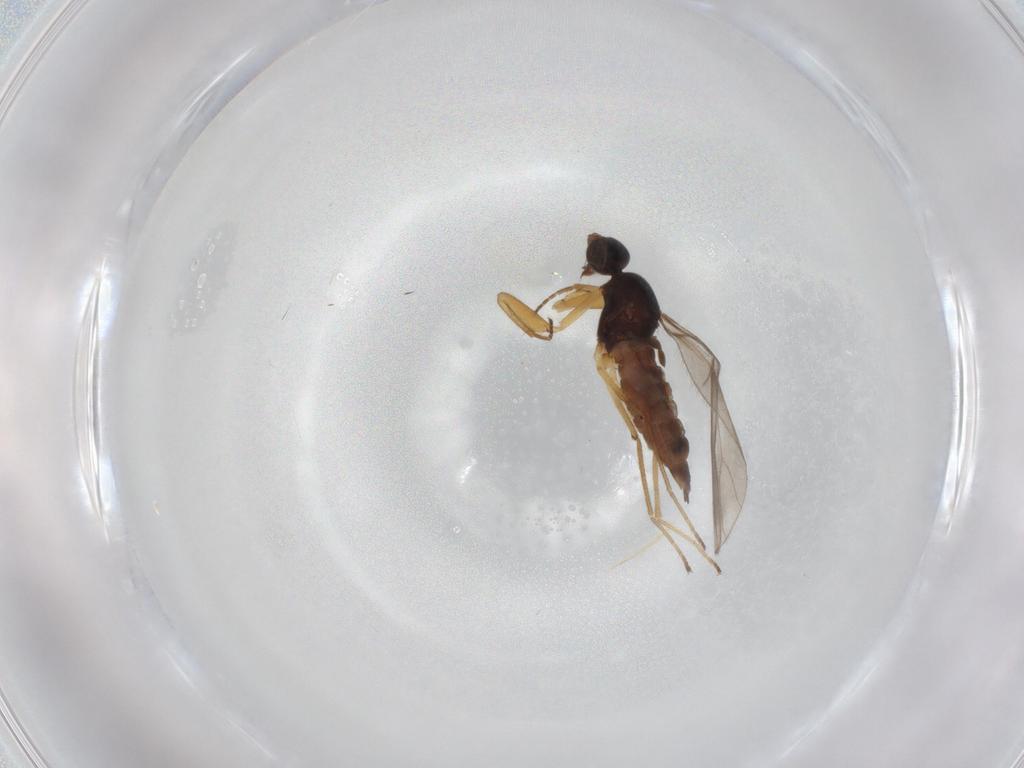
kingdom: Animalia
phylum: Arthropoda
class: Insecta
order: Diptera
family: Empididae
